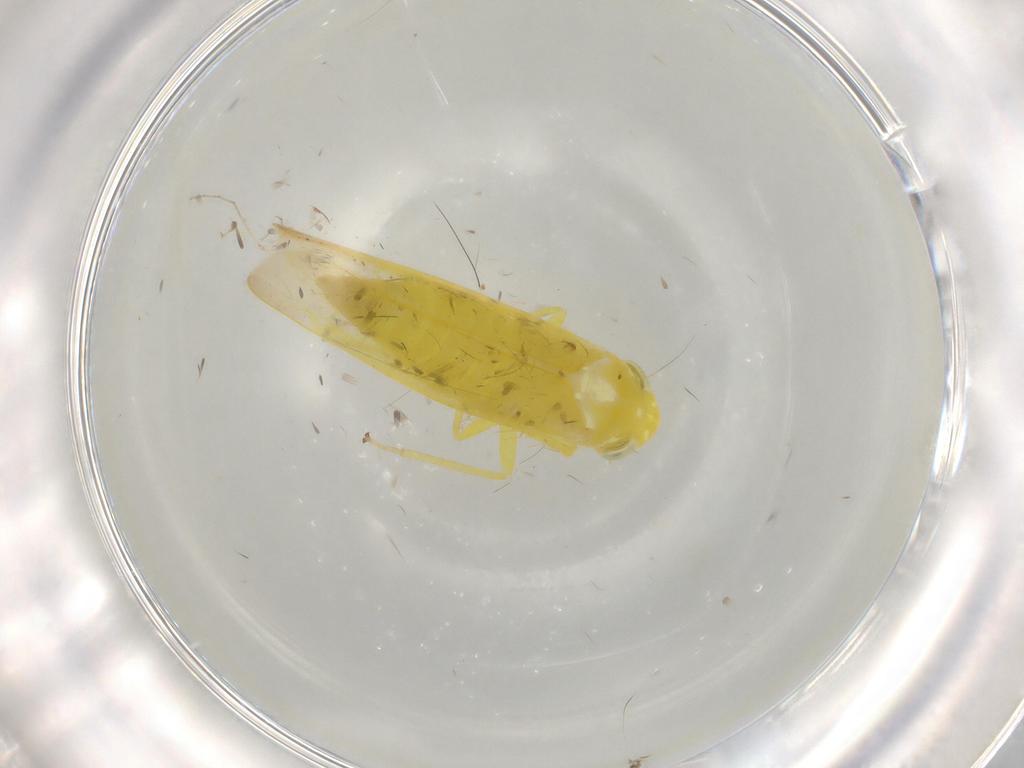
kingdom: Animalia
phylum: Arthropoda
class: Insecta
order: Hemiptera
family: Cicadellidae
